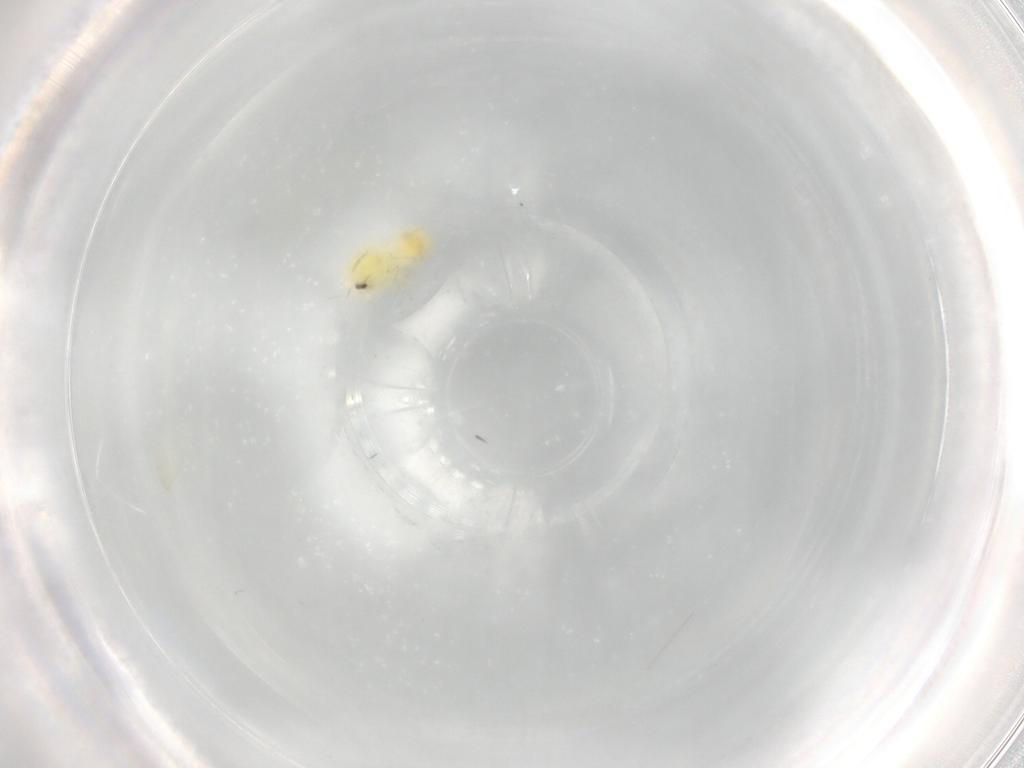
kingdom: Animalia
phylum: Arthropoda
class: Insecta
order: Hemiptera
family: Aleyrodidae
